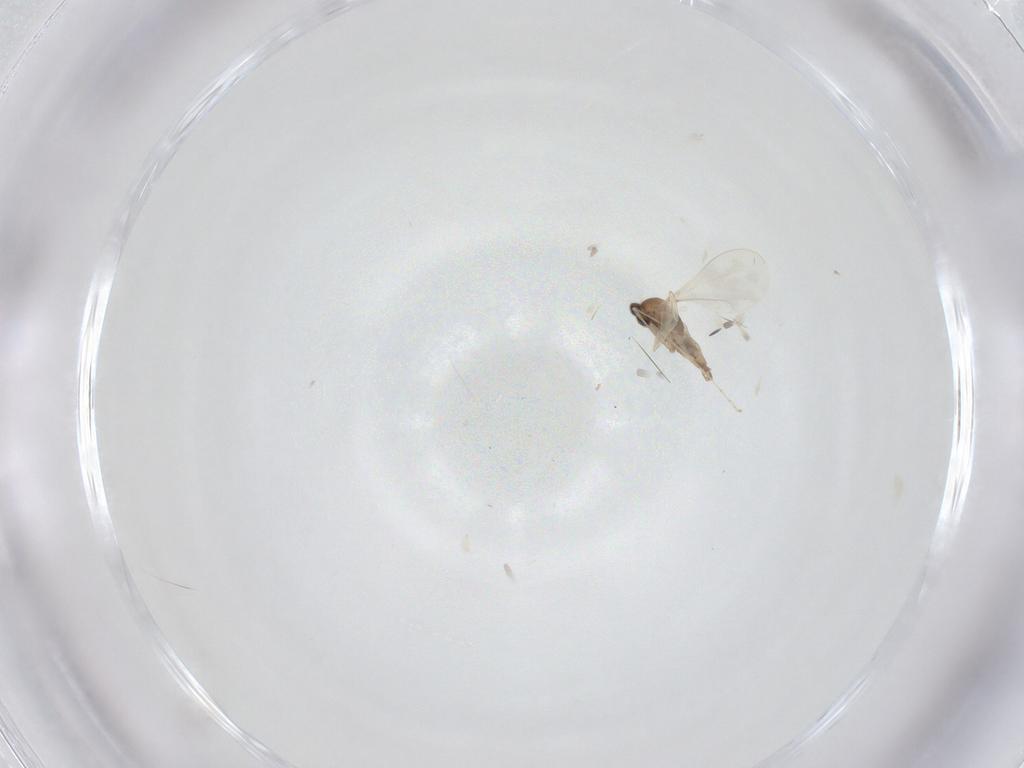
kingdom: Animalia
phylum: Arthropoda
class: Insecta
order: Diptera
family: Cecidomyiidae
